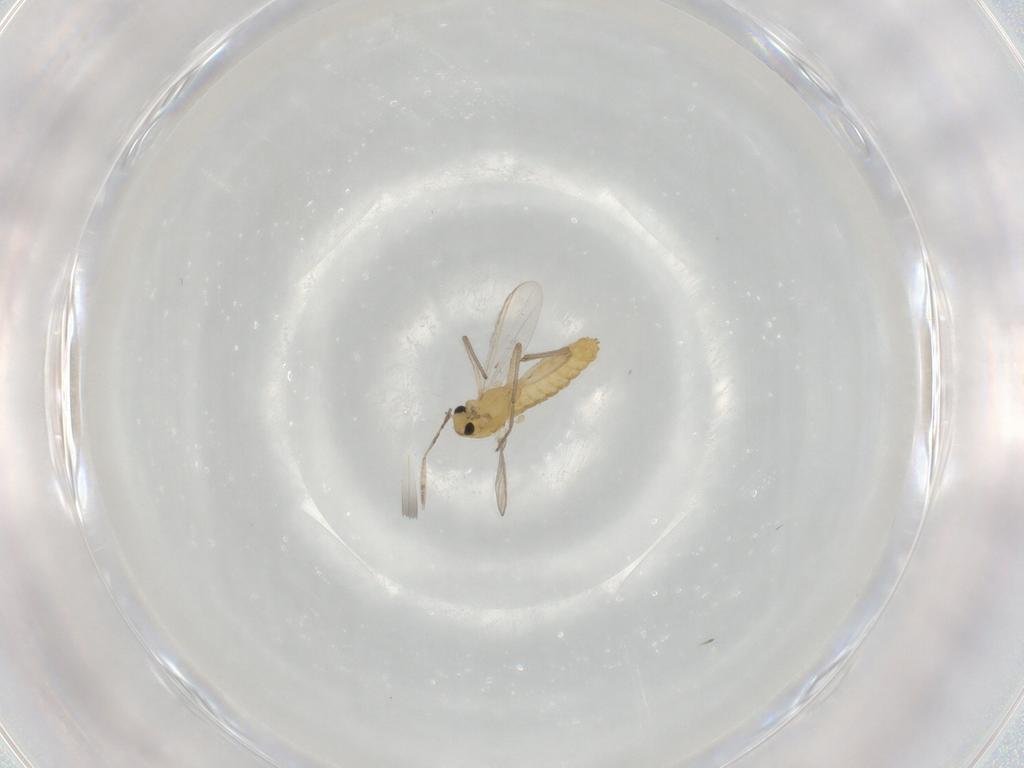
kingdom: Animalia
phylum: Arthropoda
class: Insecta
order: Diptera
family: Chironomidae
